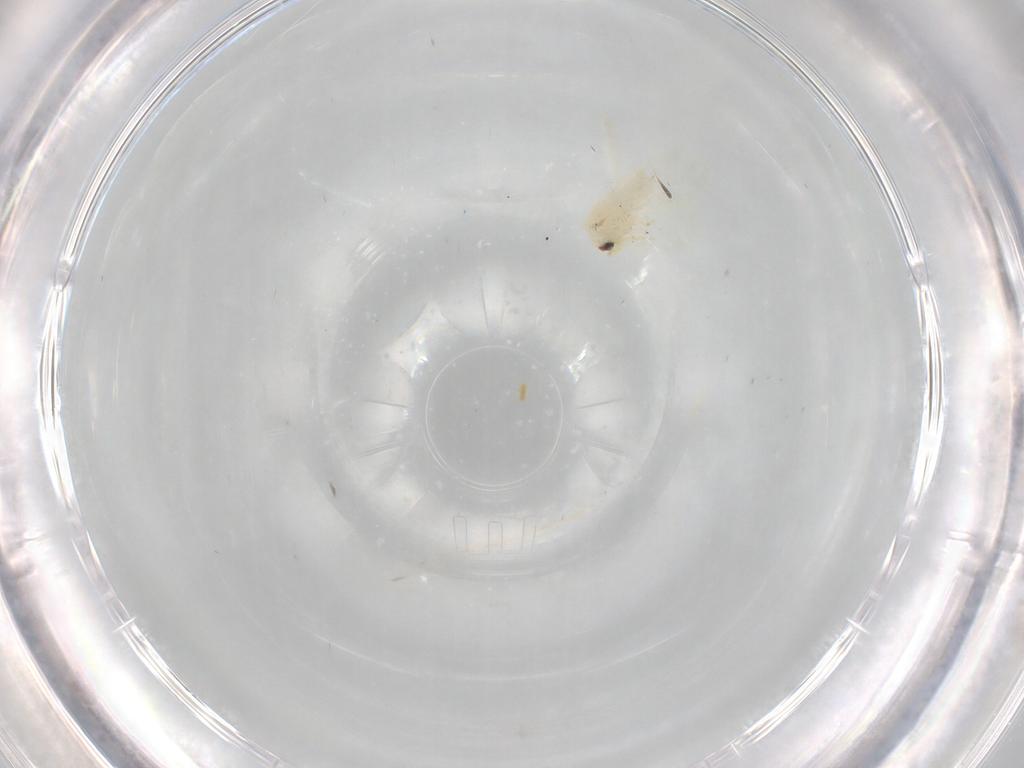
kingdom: Animalia
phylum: Arthropoda
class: Insecta
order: Hemiptera
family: Aleyrodidae
